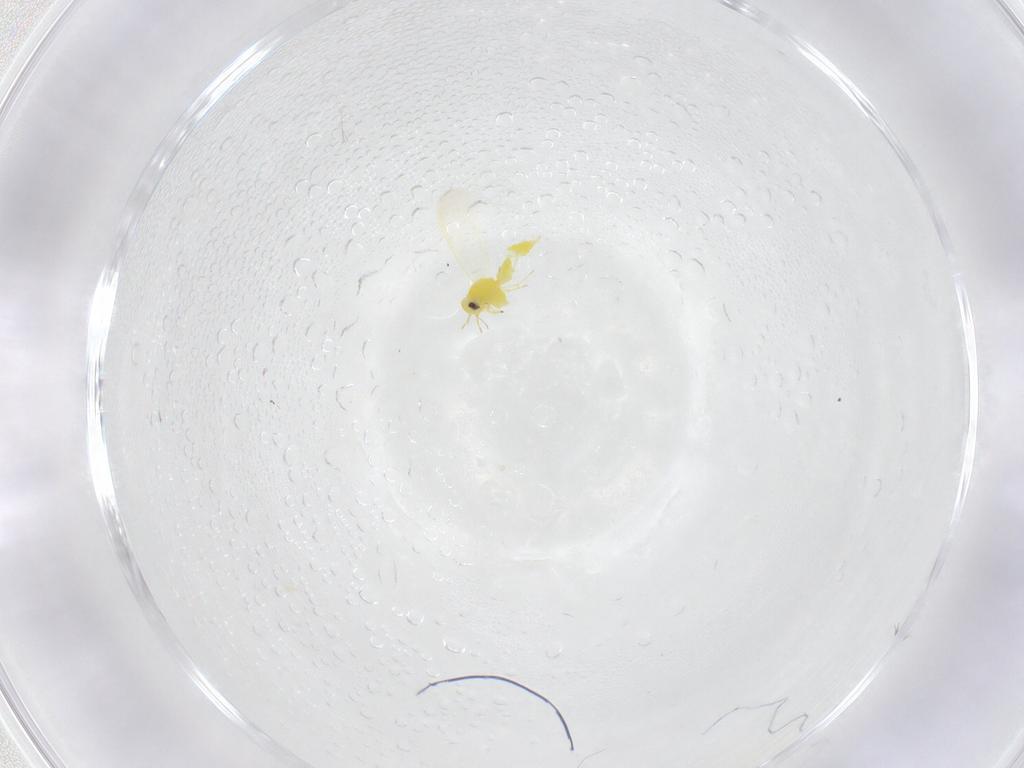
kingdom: Animalia
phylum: Arthropoda
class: Insecta
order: Hemiptera
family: Aleyrodidae
